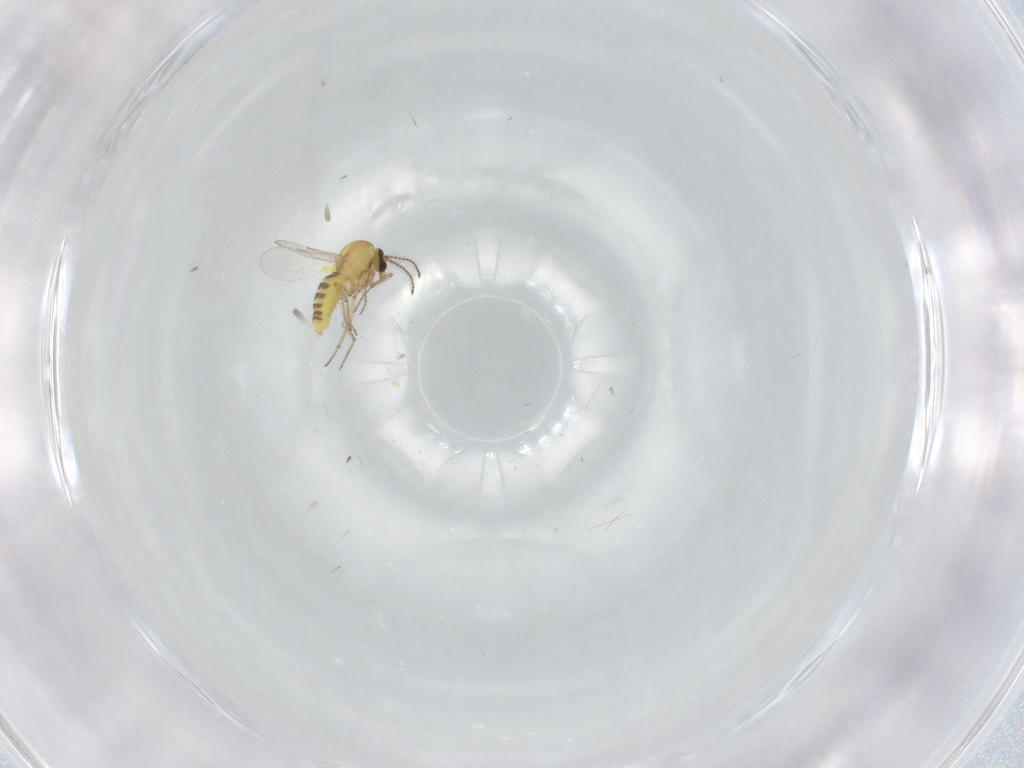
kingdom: Animalia
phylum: Arthropoda
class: Insecta
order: Diptera
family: Ceratopogonidae
